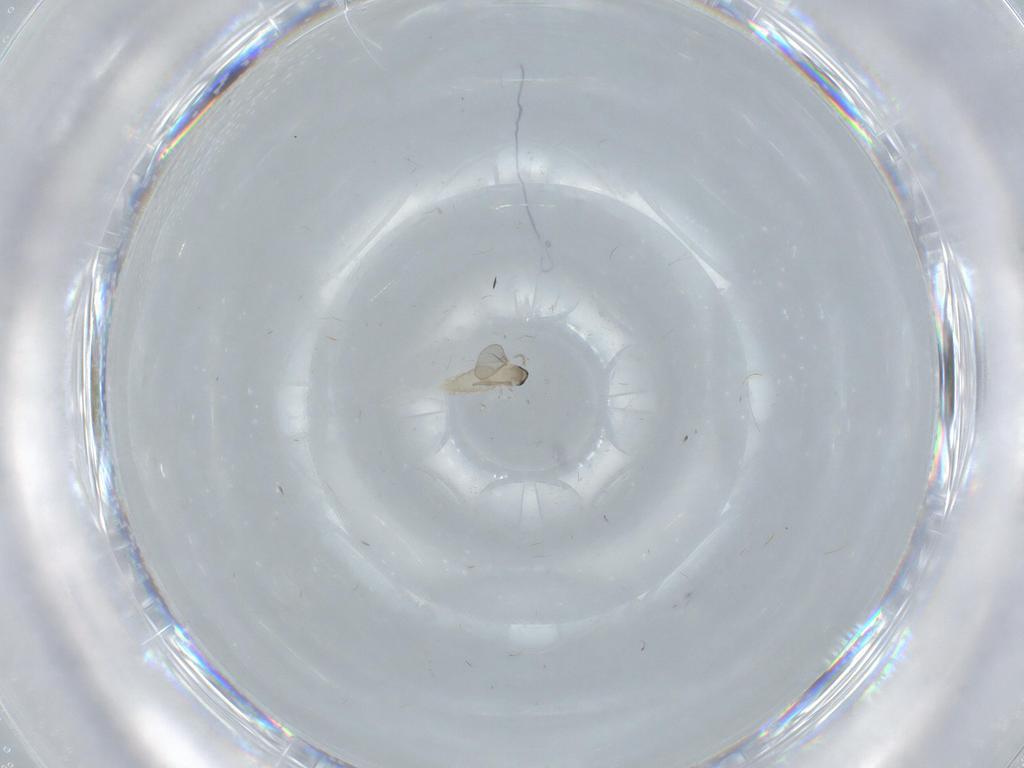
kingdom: Animalia
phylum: Arthropoda
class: Insecta
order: Diptera
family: Cecidomyiidae
